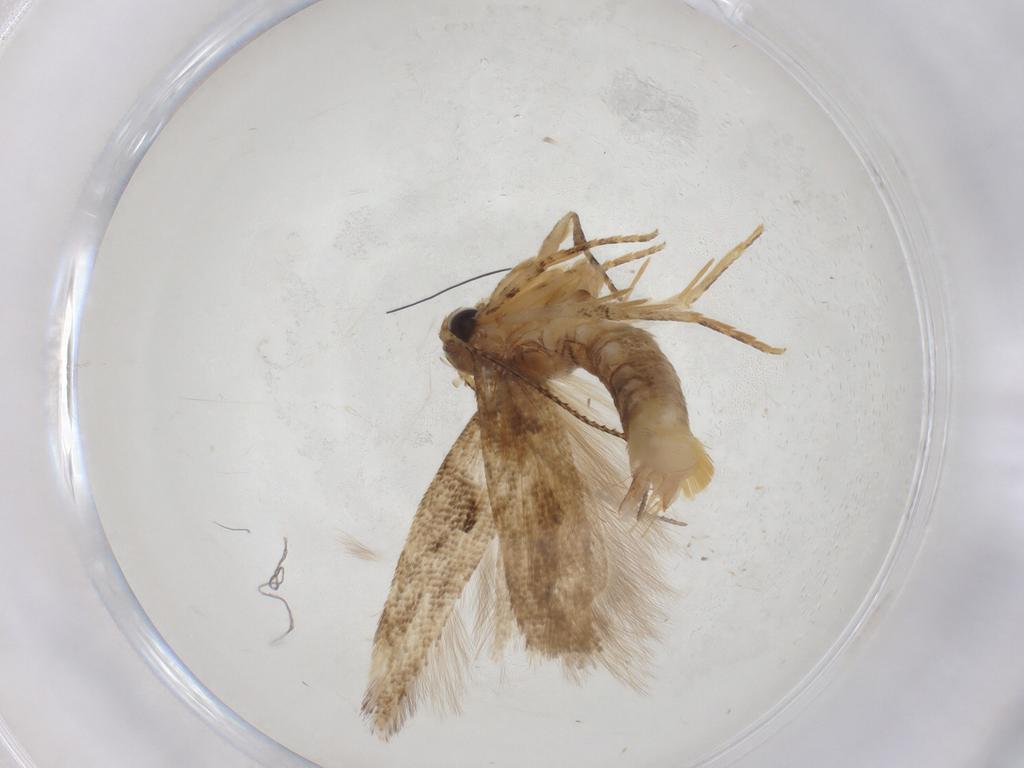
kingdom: Animalia
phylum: Arthropoda
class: Insecta
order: Lepidoptera
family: Gelechiidae
